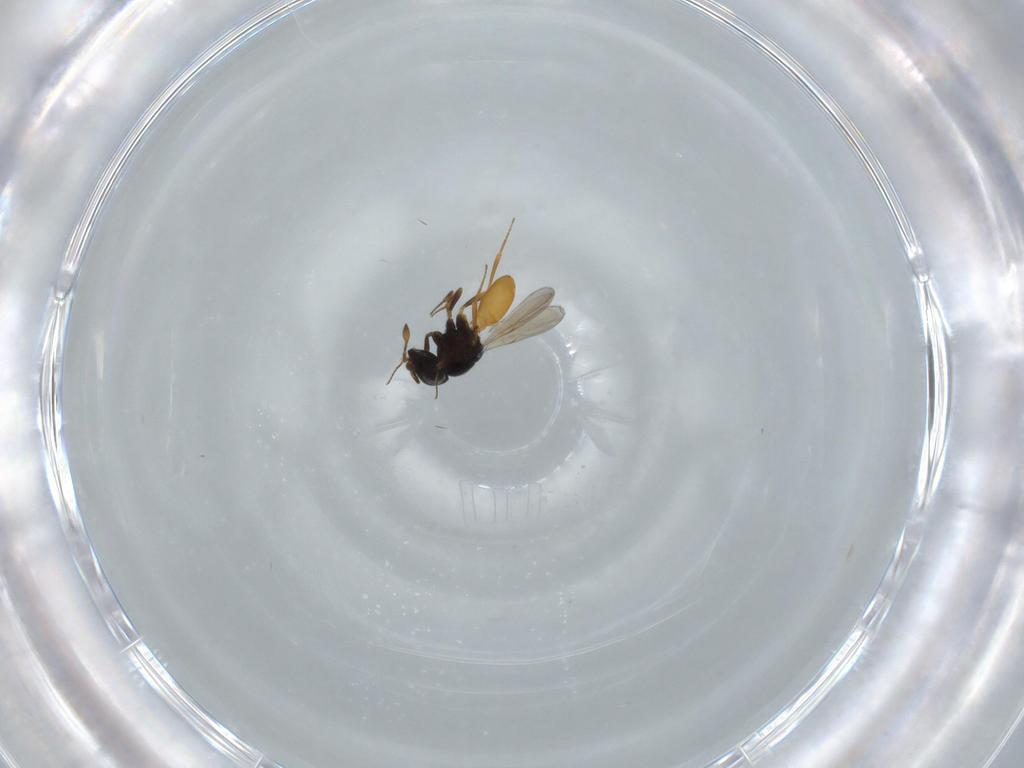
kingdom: Animalia
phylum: Arthropoda
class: Insecta
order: Hymenoptera
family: Scelionidae
